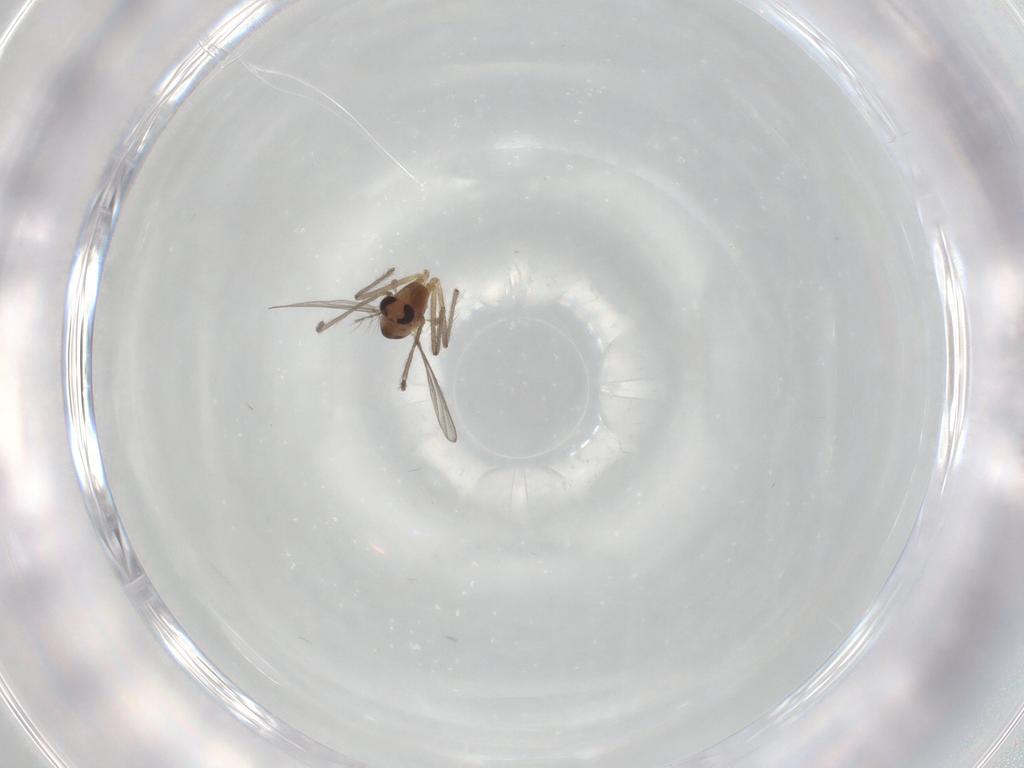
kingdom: Animalia
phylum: Arthropoda
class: Insecta
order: Diptera
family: Chironomidae
